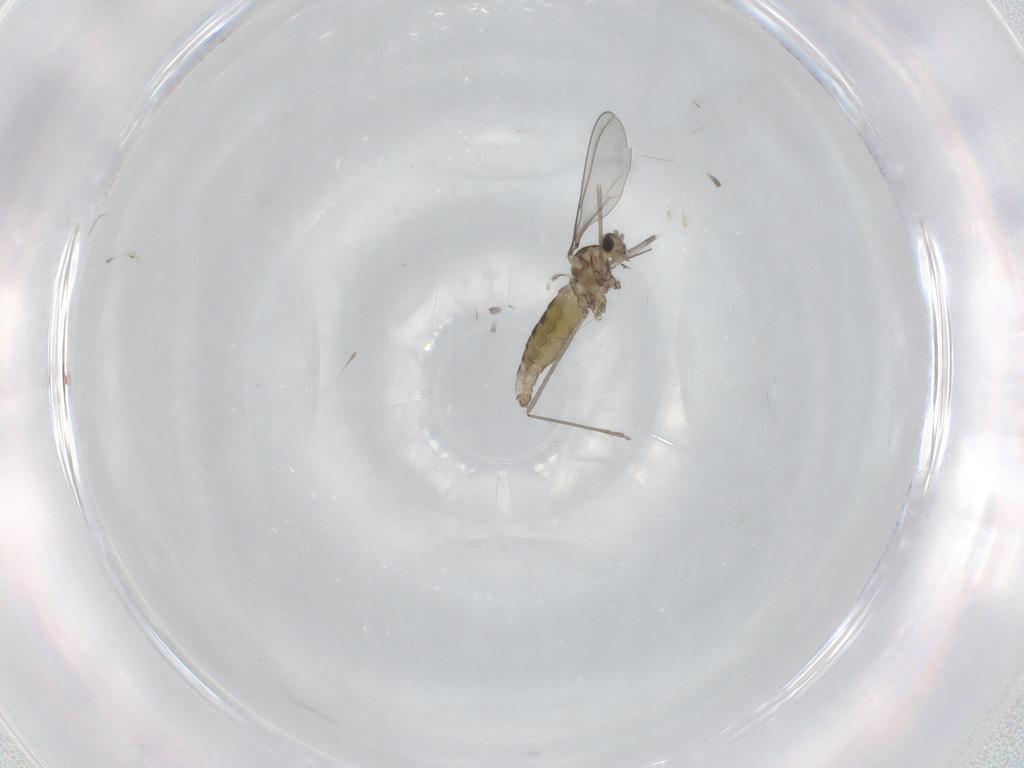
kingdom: Animalia
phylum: Arthropoda
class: Insecta
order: Diptera
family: Cecidomyiidae
